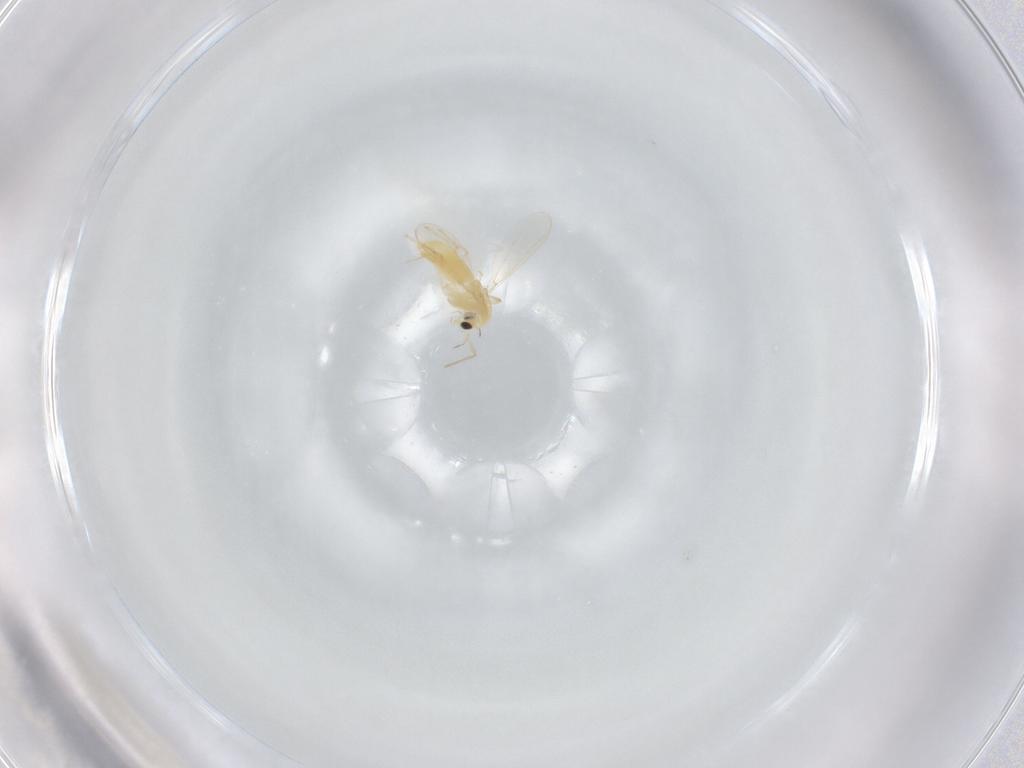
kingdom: Animalia
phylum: Arthropoda
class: Insecta
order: Diptera
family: Chironomidae
